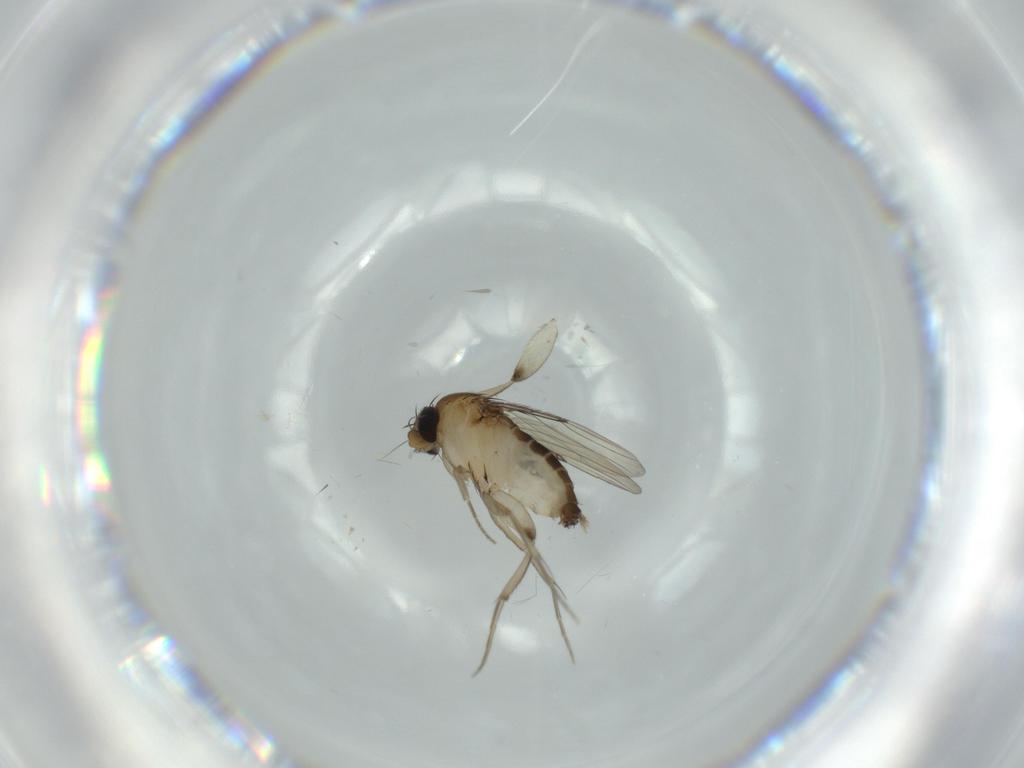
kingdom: Animalia
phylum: Arthropoda
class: Insecta
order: Diptera
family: Phoridae
